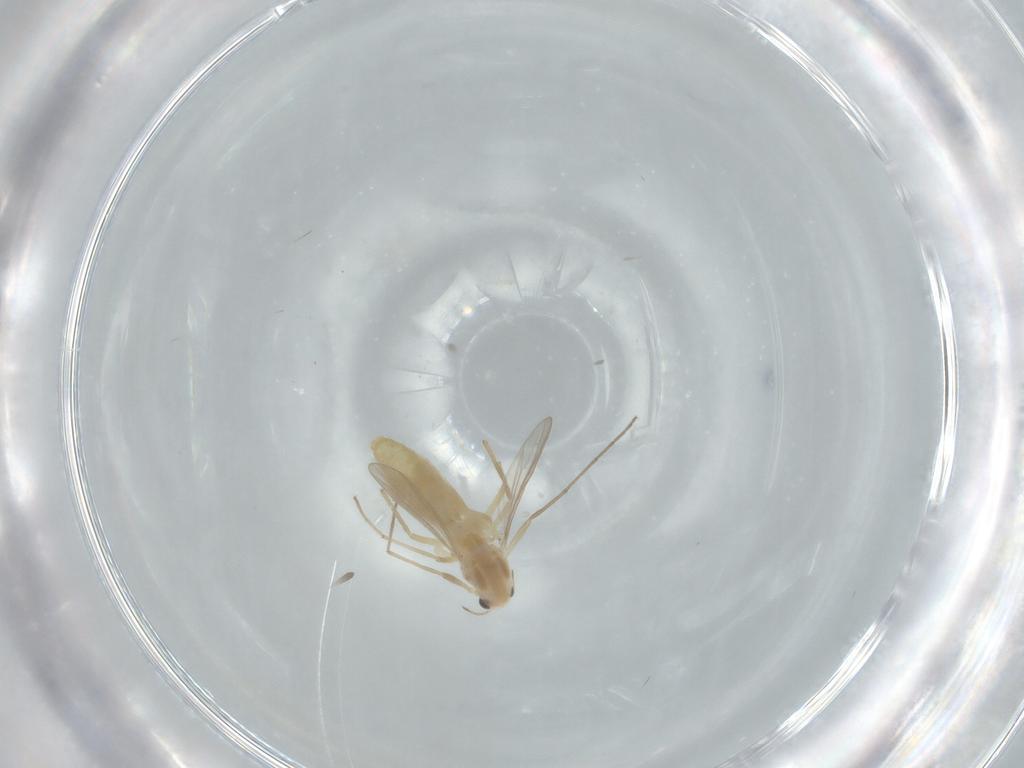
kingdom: Animalia
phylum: Arthropoda
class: Insecta
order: Diptera
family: Chironomidae
